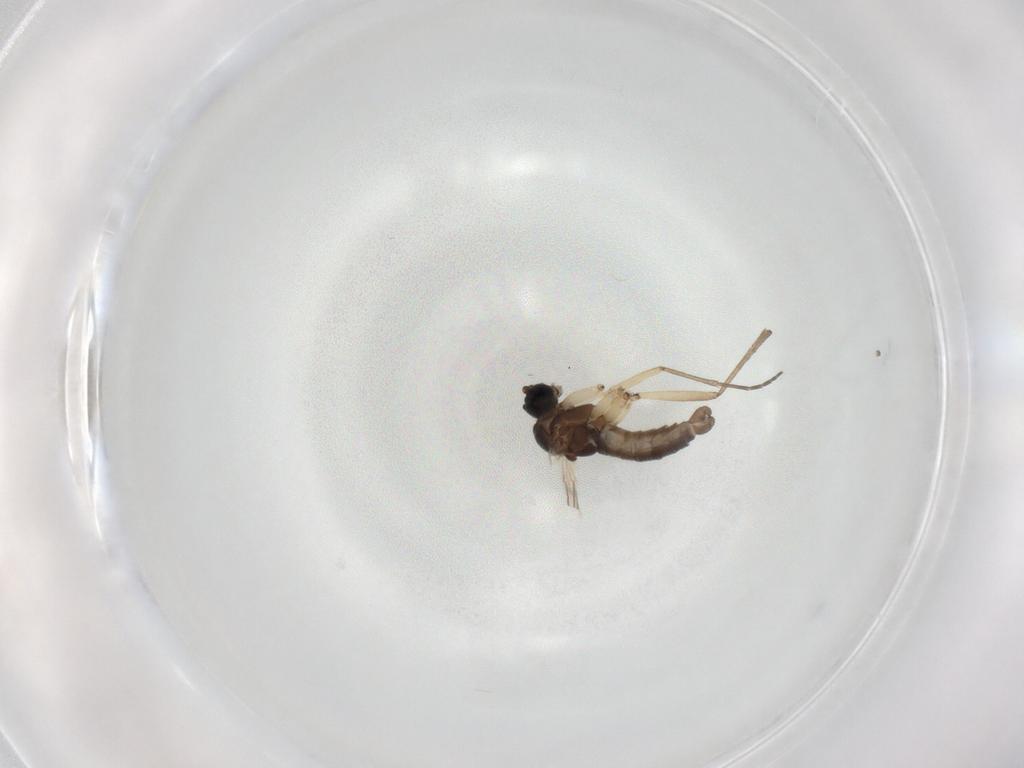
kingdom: Animalia
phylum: Arthropoda
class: Insecta
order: Diptera
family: Sciaridae
